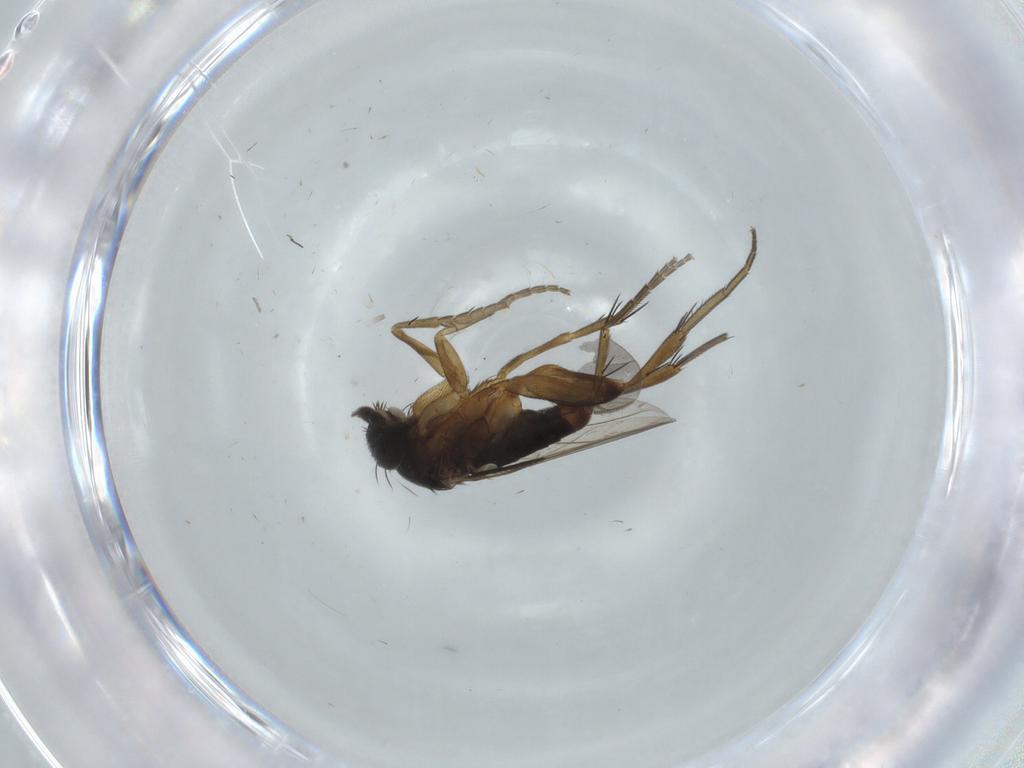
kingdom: Animalia
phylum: Arthropoda
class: Insecta
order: Diptera
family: Phoridae
